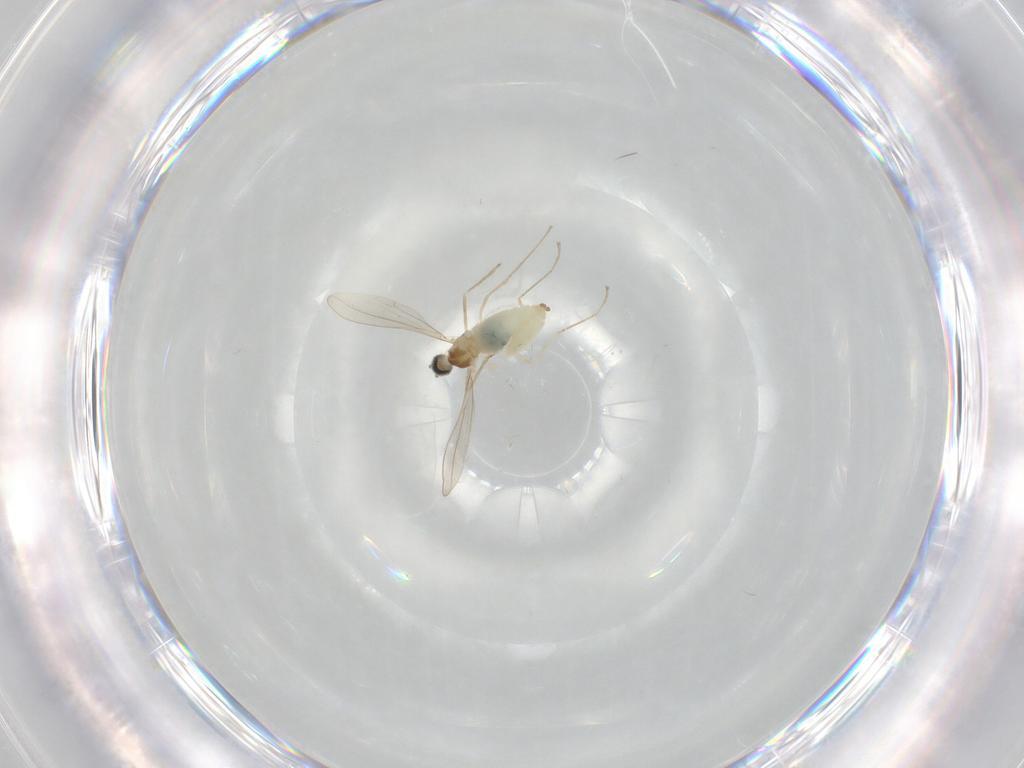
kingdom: Animalia
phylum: Arthropoda
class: Insecta
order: Diptera
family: Cecidomyiidae
